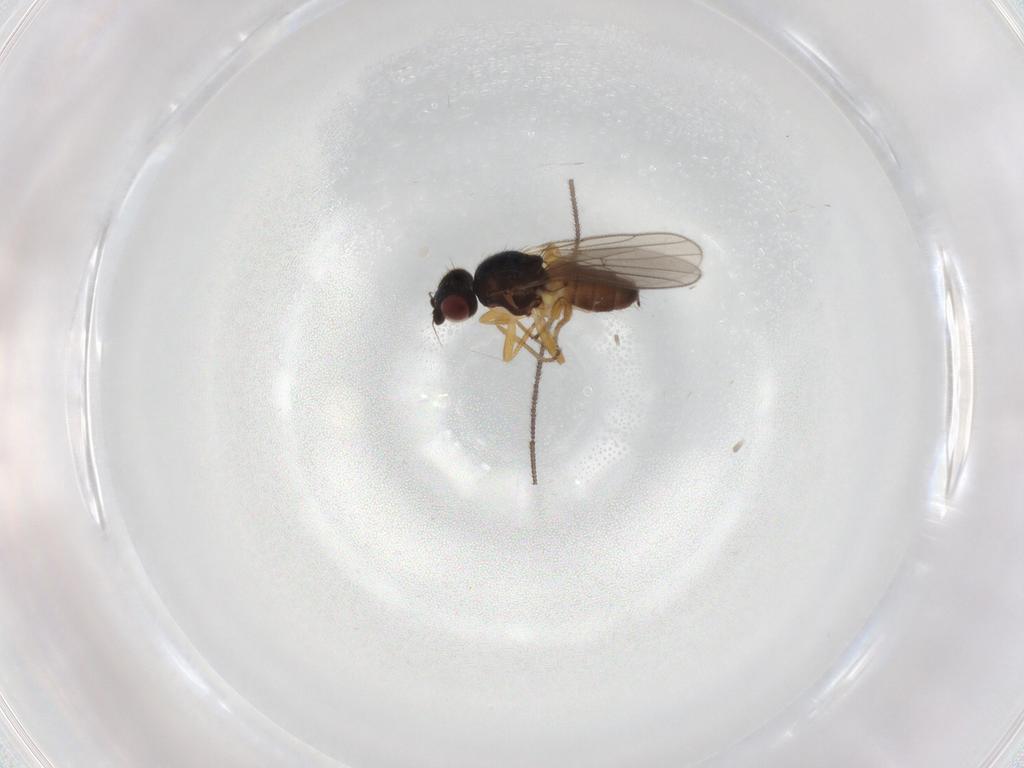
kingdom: Animalia
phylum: Arthropoda
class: Insecta
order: Diptera
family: Chloropidae
